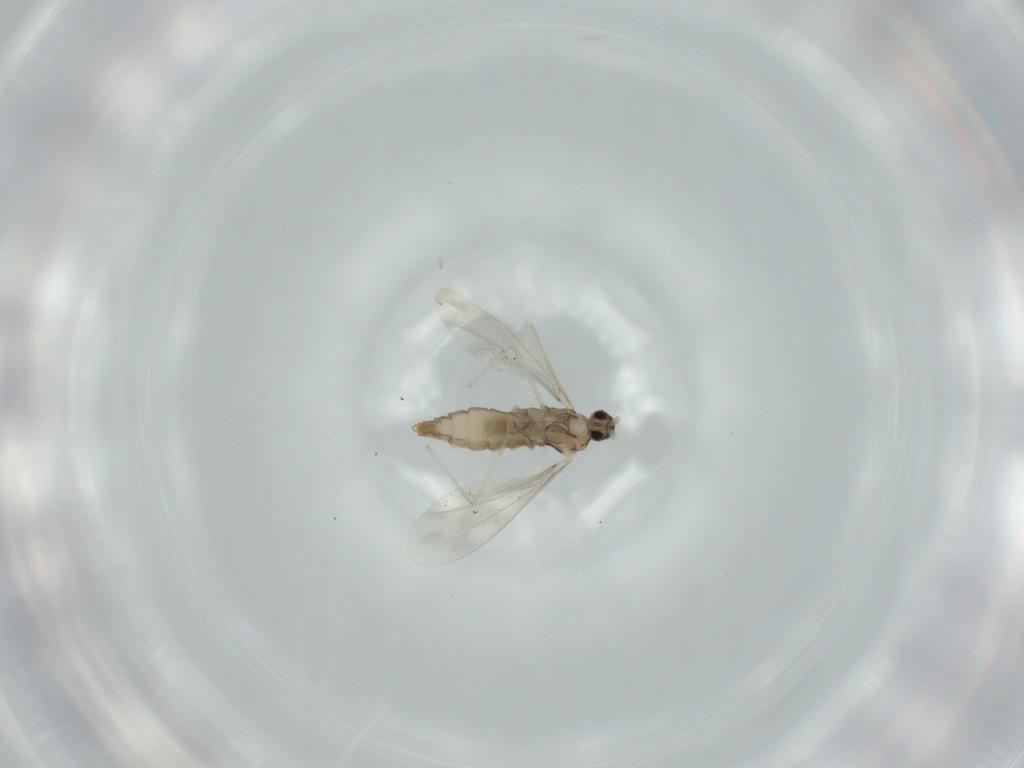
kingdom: Animalia
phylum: Arthropoda
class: Insecta
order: Diptera
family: Cecidomyiidae
